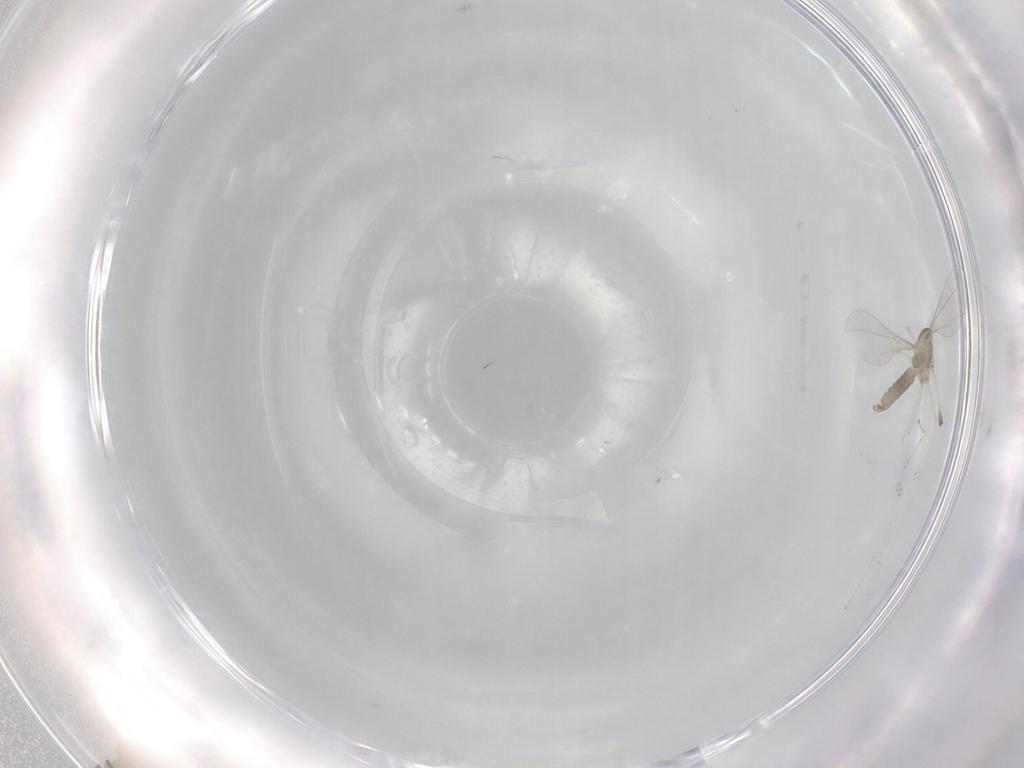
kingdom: Animalia
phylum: Arthropoda
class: Insecta
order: Diptera
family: Cecidomyiidae
